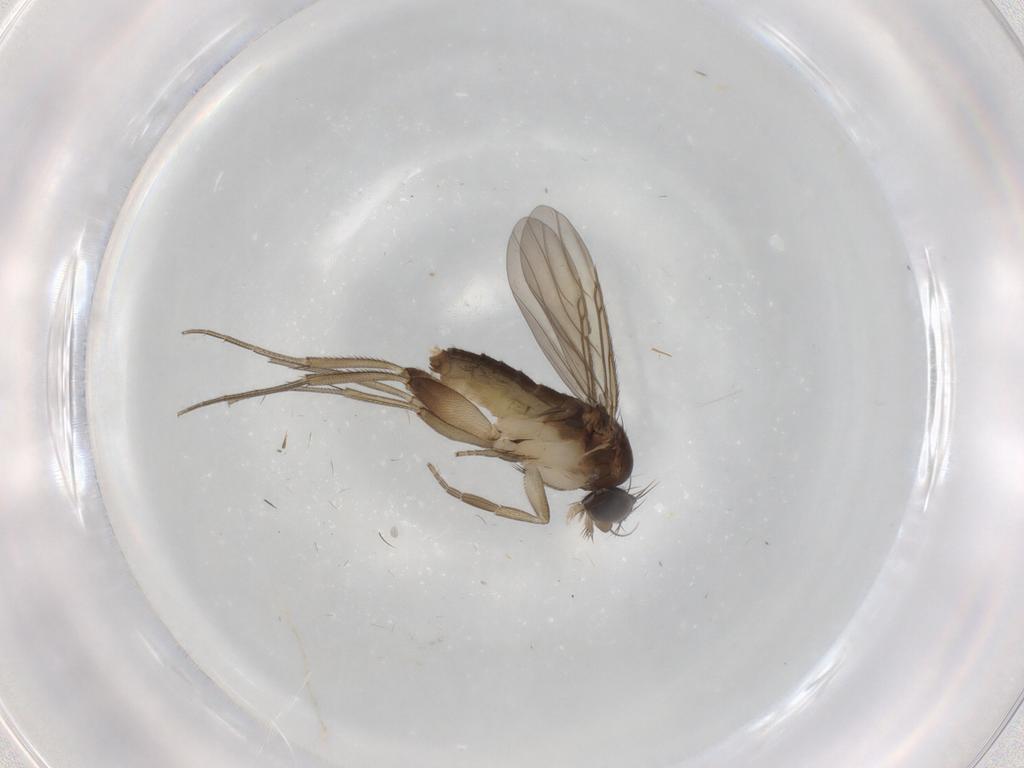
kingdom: Animalia
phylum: Arthropoda
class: Insecta
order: Diptera
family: Phoridae
